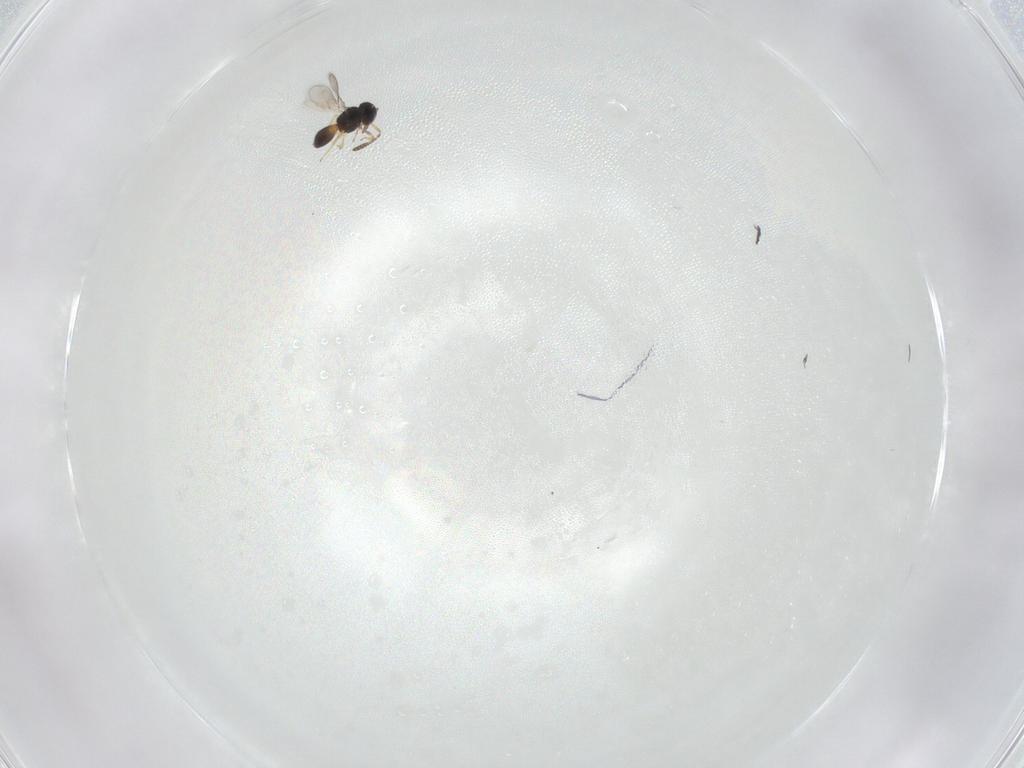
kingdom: Animalia
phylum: Arthropoda
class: Insecta
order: Hymenoptera
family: Scelionidae
